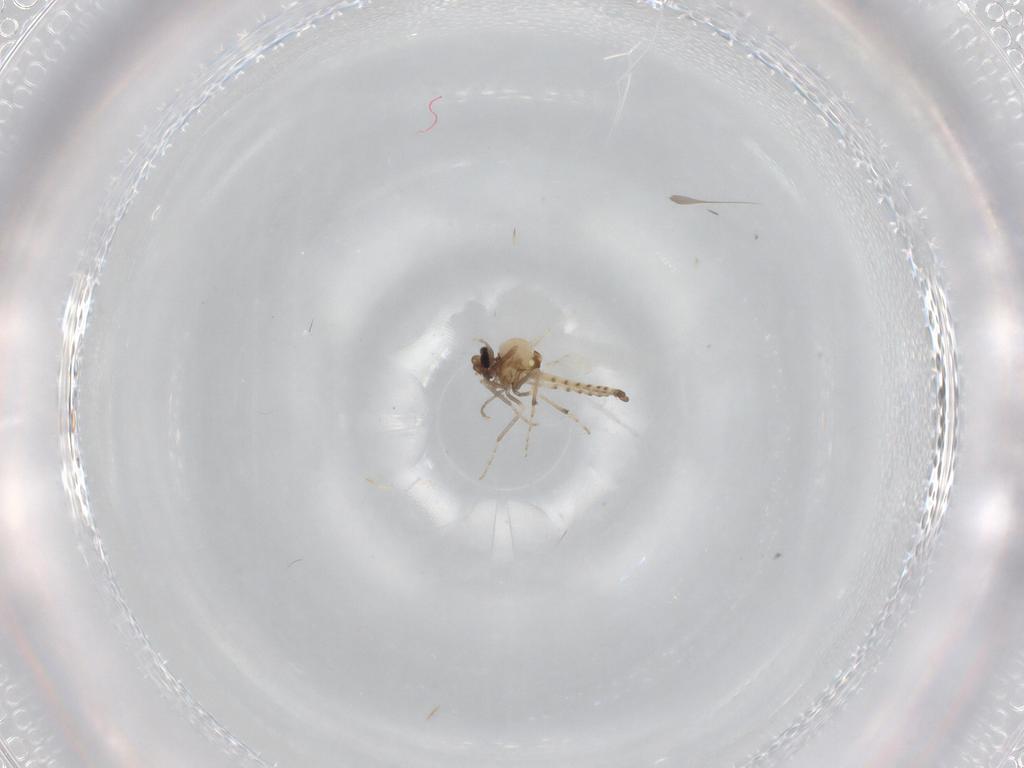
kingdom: Animalia
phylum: Arthropoda
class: Insecta
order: Diptera
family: Ceratopogonidae
